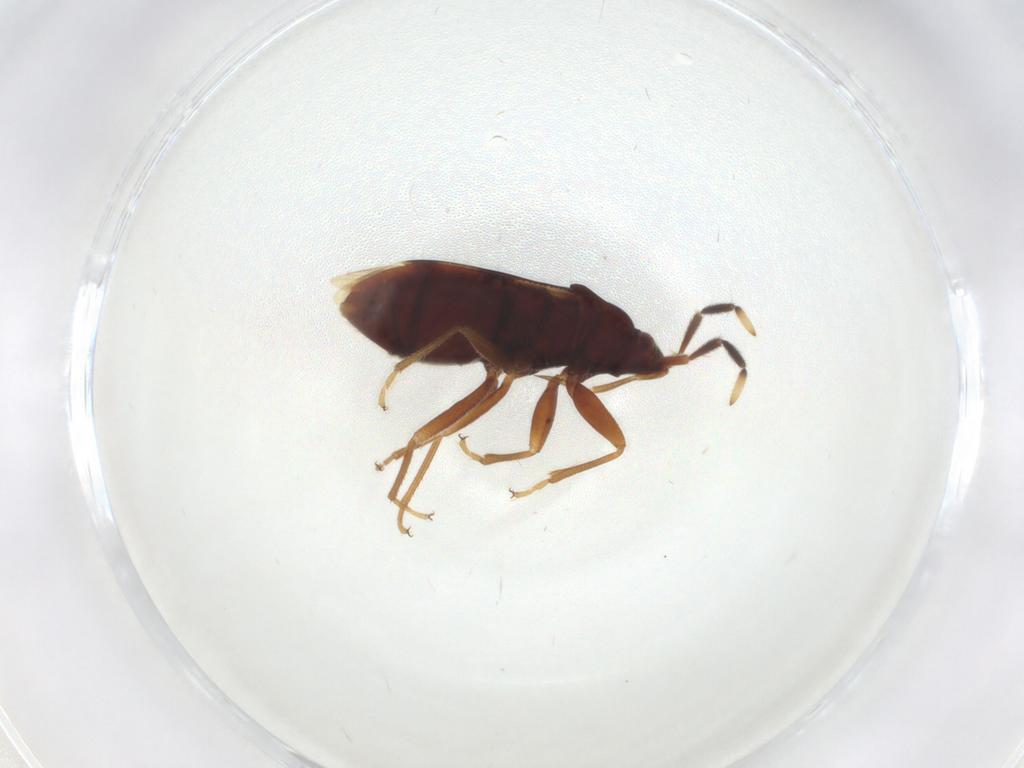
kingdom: Animalia
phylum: Arthropoda
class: Insecta
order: Hemiptera
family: Rhyparochromidae
